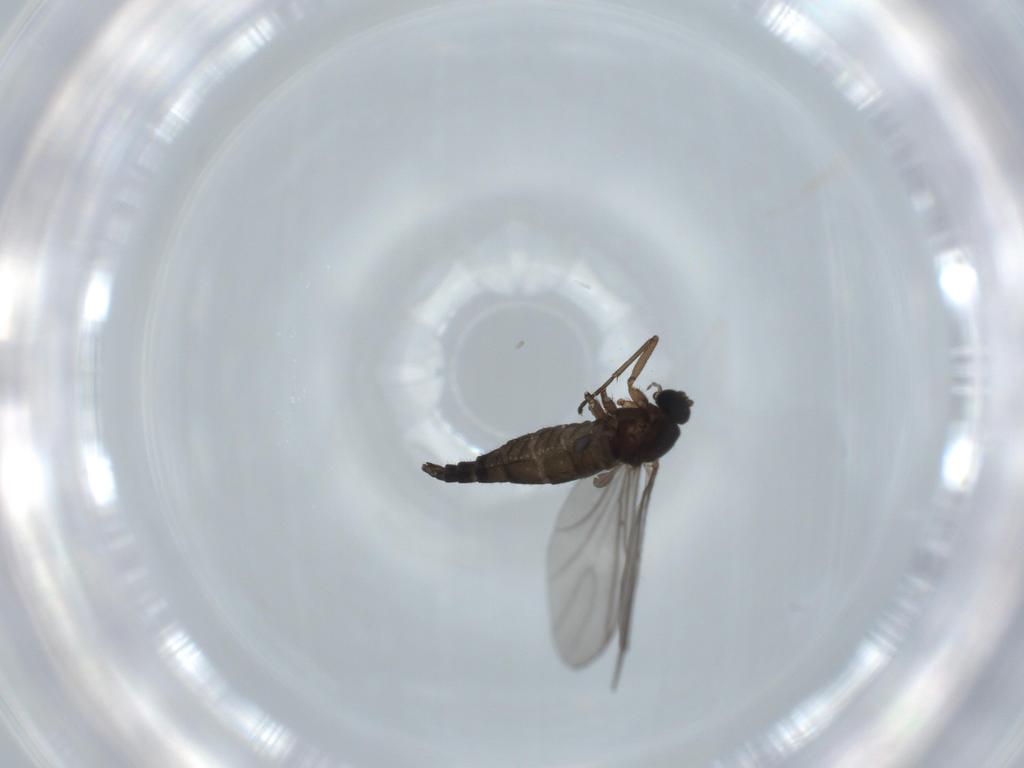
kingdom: Animalia
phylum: Arthropoda
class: Insecta
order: Diptera
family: Sciaridae
